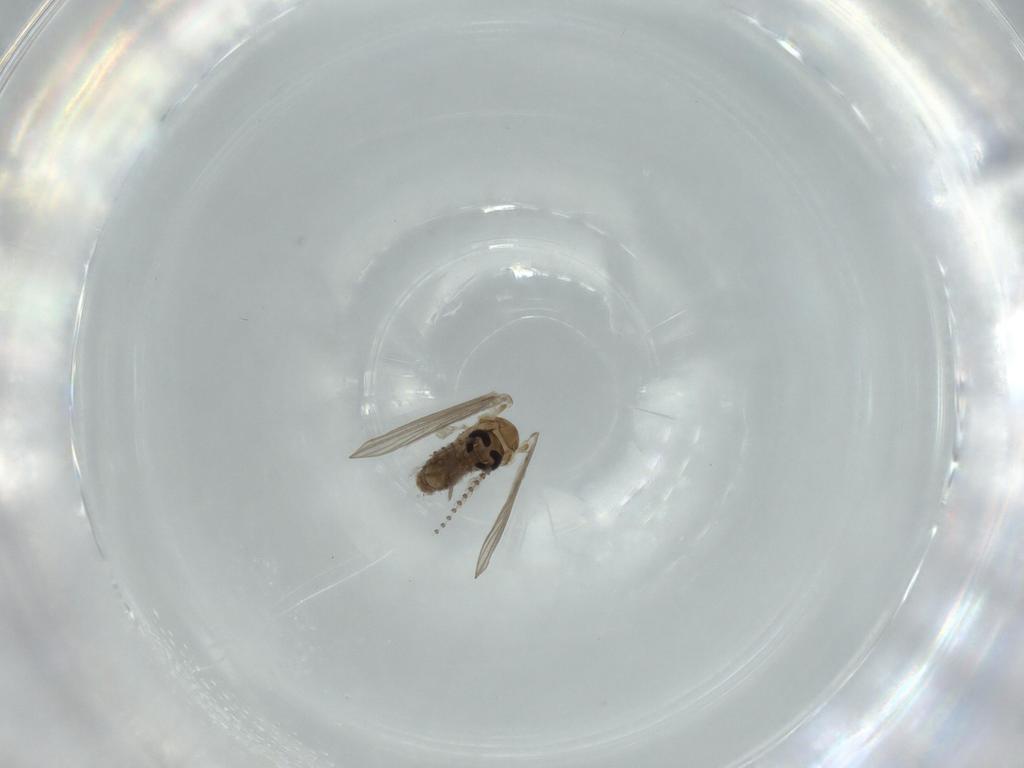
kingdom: Animalia
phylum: Arthropoda
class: Insecta
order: Diptera
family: Psychodidae
